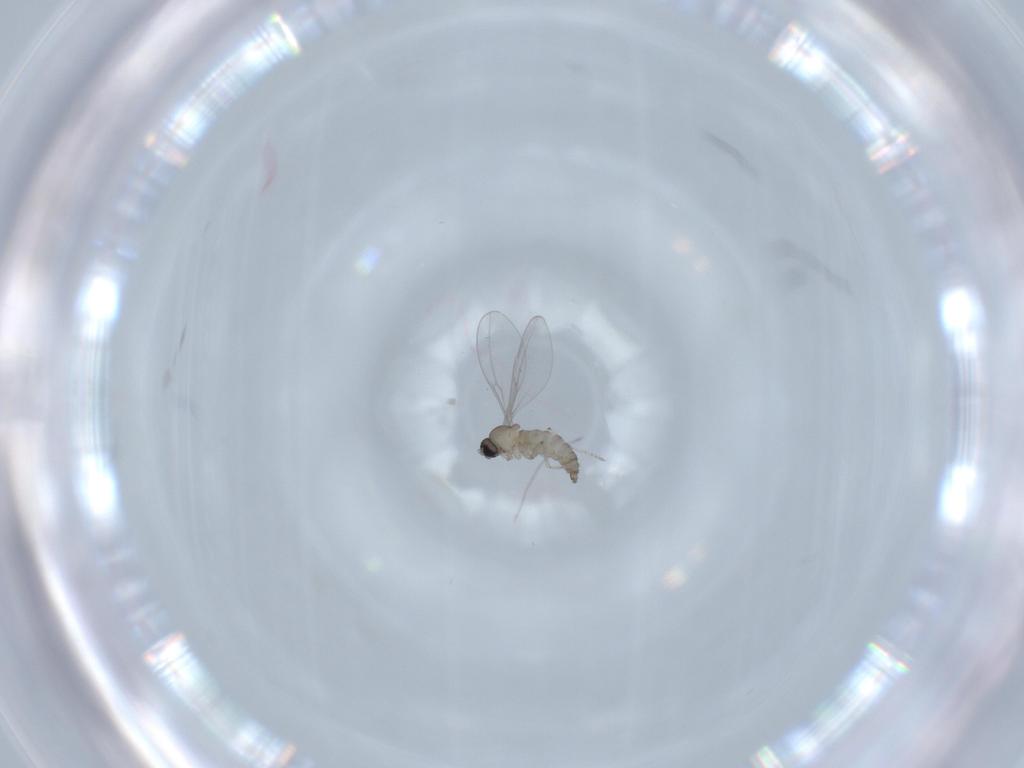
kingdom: Animalia
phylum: Arthropoda
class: Insecta
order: Diptera
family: Cecidomyiidae
